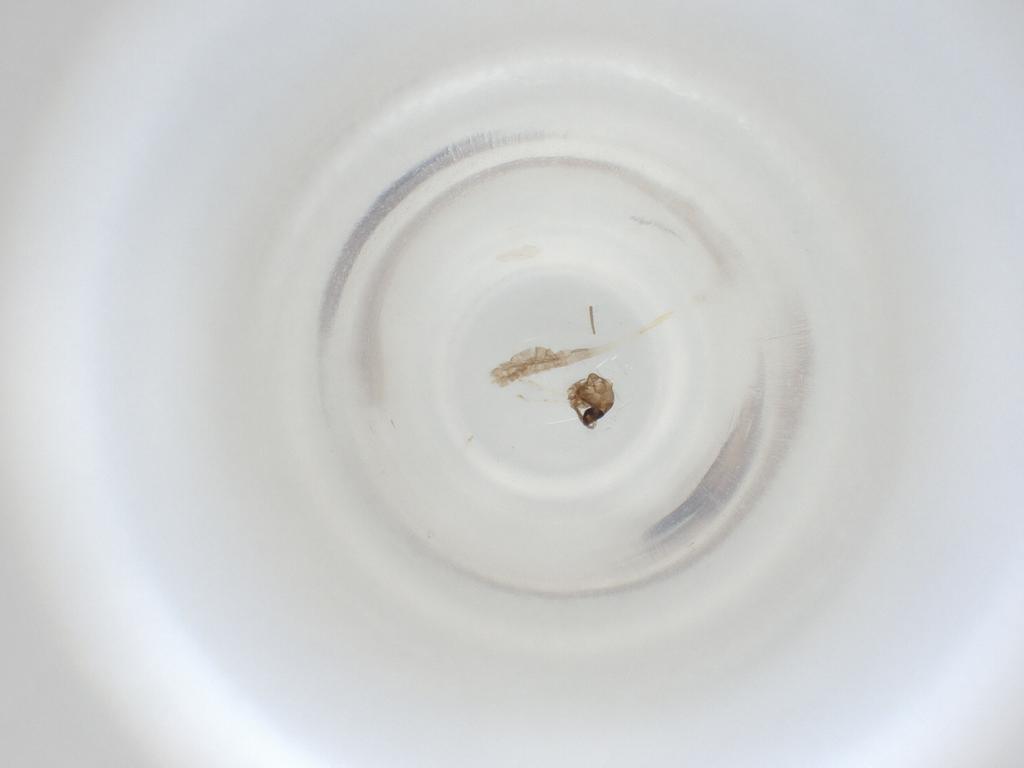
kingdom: Animalia
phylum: Arthropoda
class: Insecta
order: Diptera
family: Cecidomyiidae
